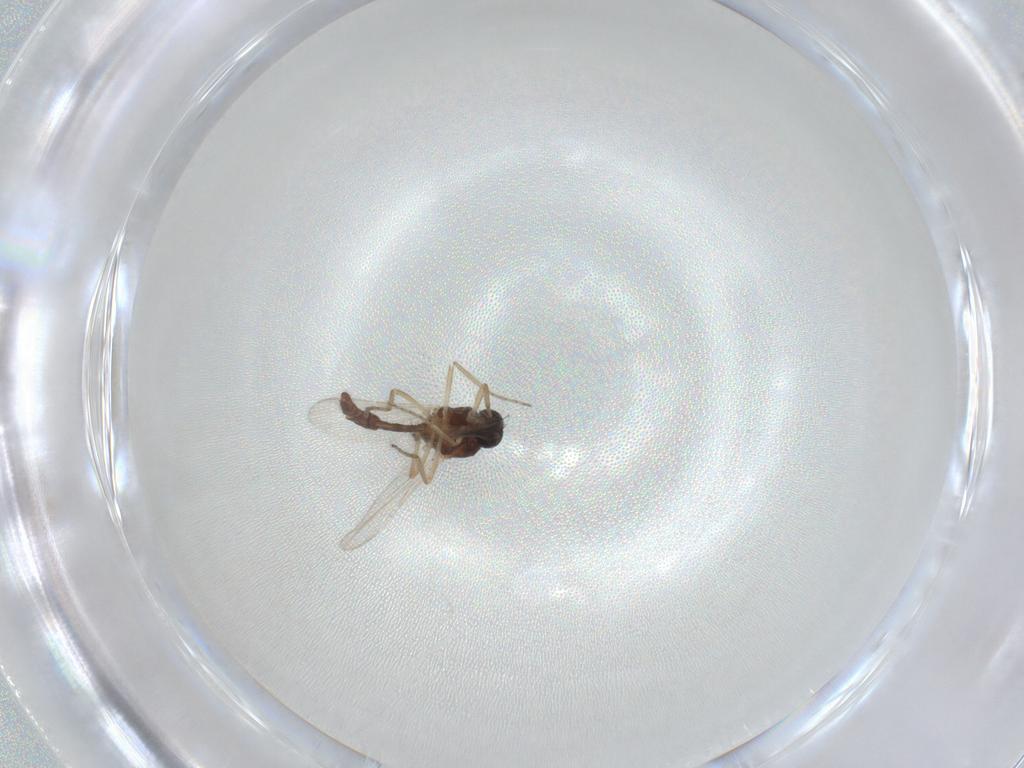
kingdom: Animalia
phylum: Arthropoda
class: Insecta
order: Diptera
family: Ceratopogonidae
